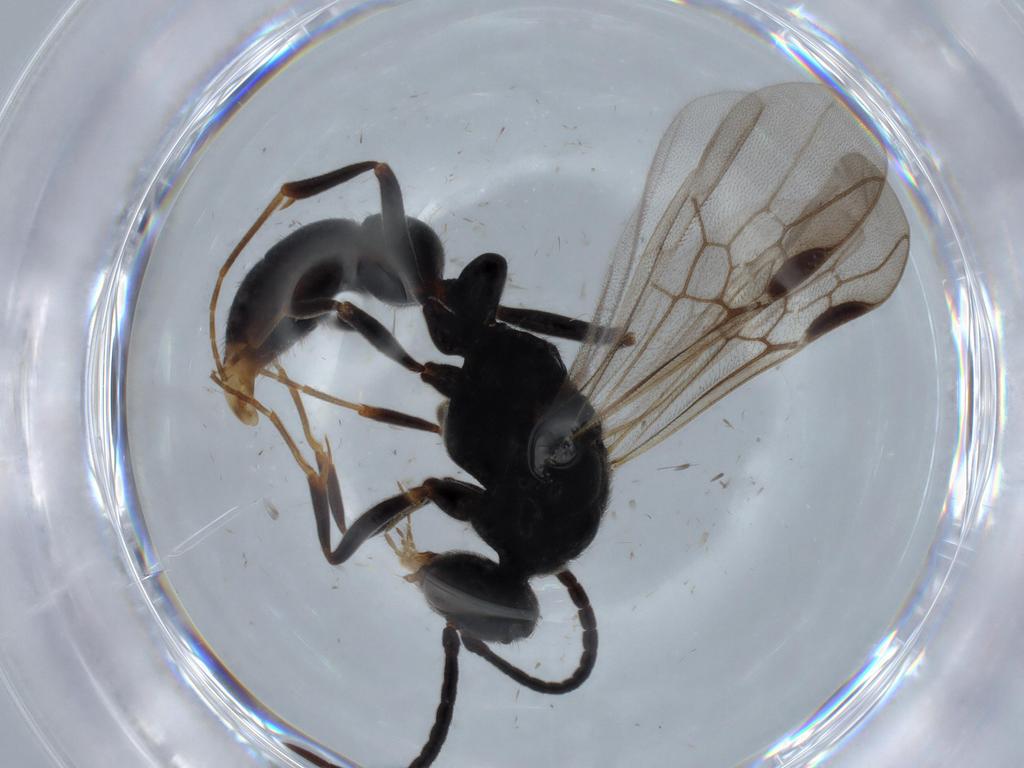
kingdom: Animalia
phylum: Arthropoda
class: Insecta
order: Hymenoptera
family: Formicidae
